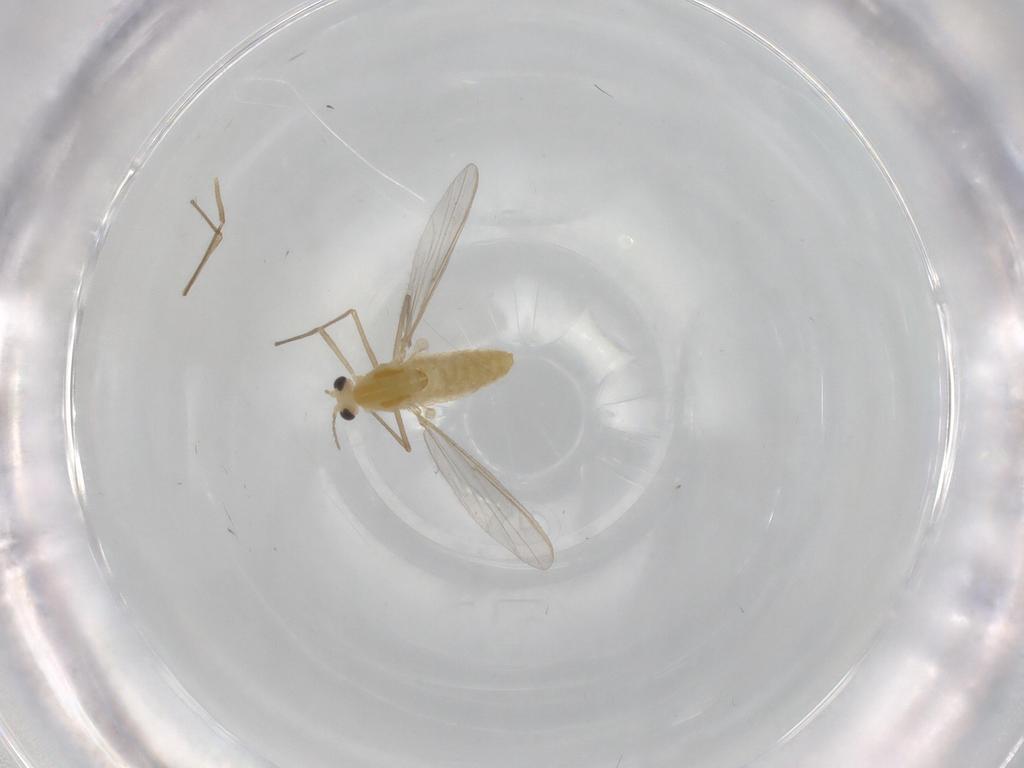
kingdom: Animalia
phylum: Arthropoda
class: Insecta
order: Diptera
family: Chironomidae
